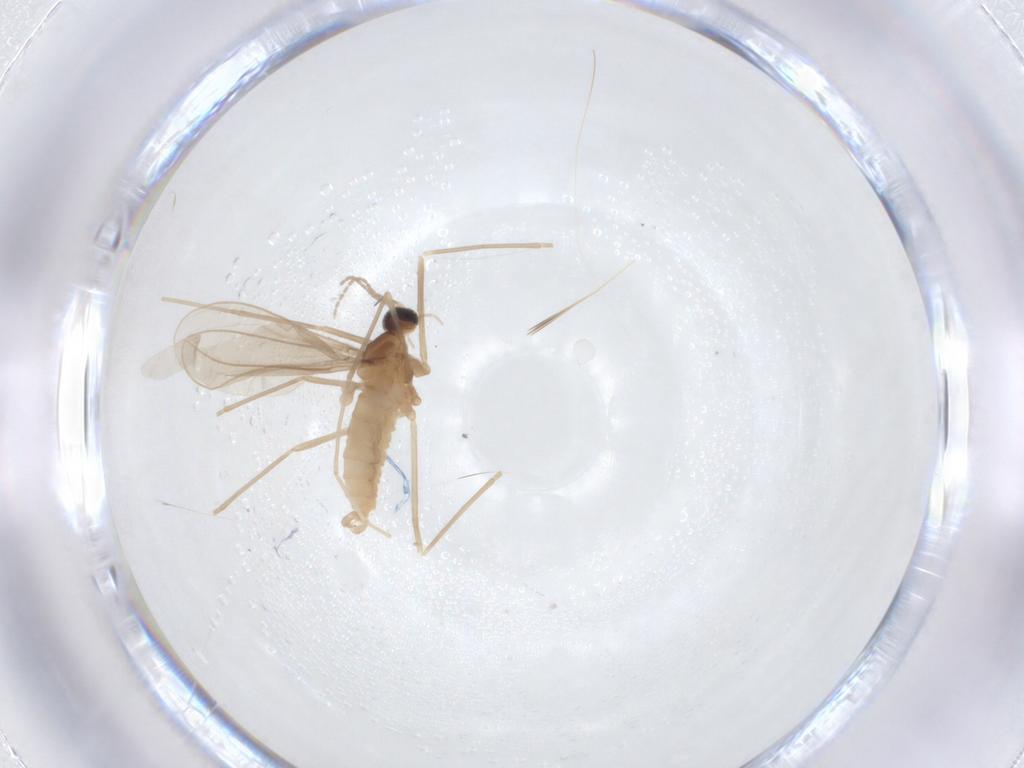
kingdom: Animalia
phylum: Arthropoda
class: Insecta
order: Diptera
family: Cecidomyiidae
